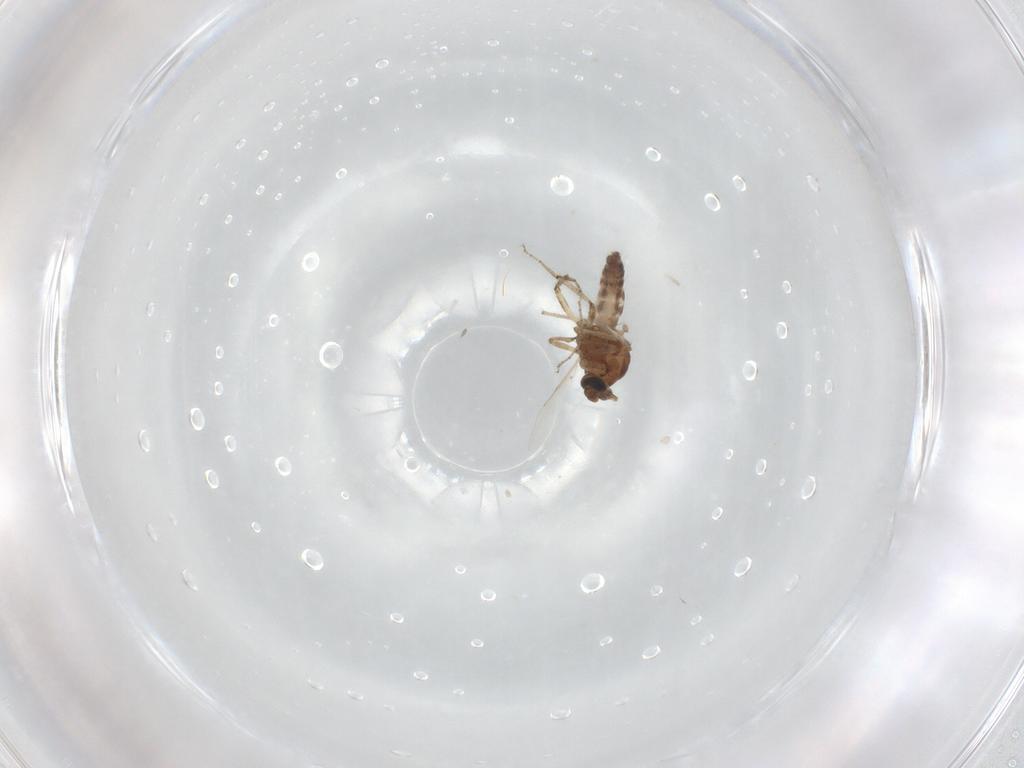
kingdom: Animalia
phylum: Arthropoda
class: Insecta
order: Diptera
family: Ceratopogonidae
